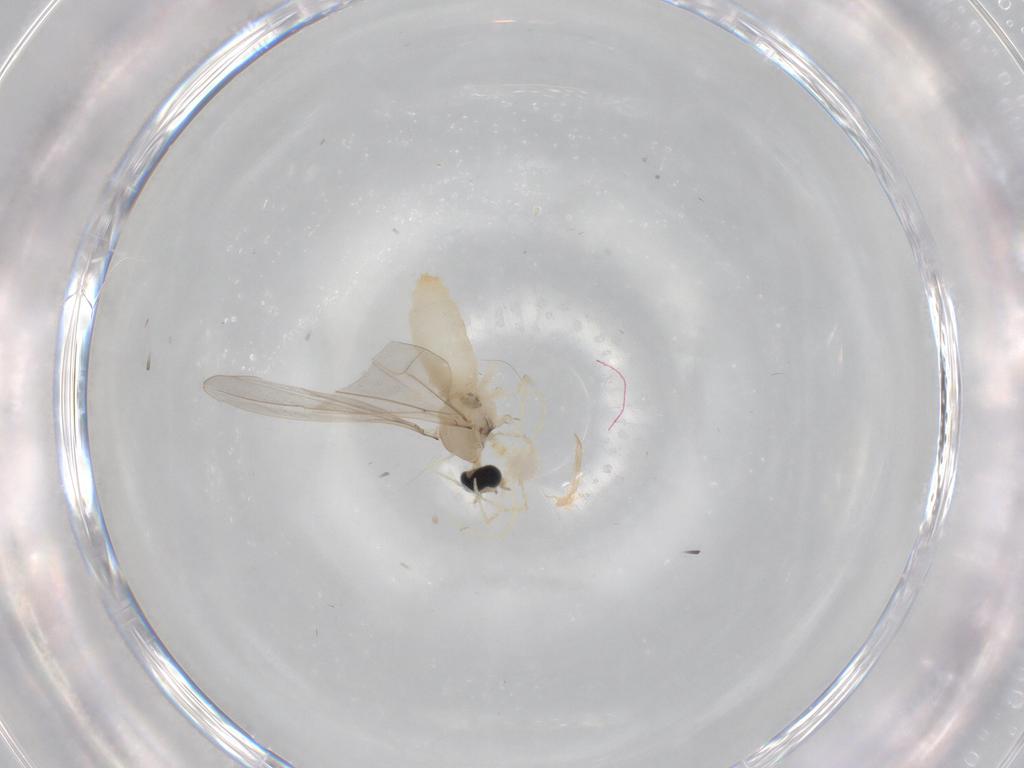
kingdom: Animalia
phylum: Arthropoda
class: Insecta
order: Diptera
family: Cecidomyiidae
